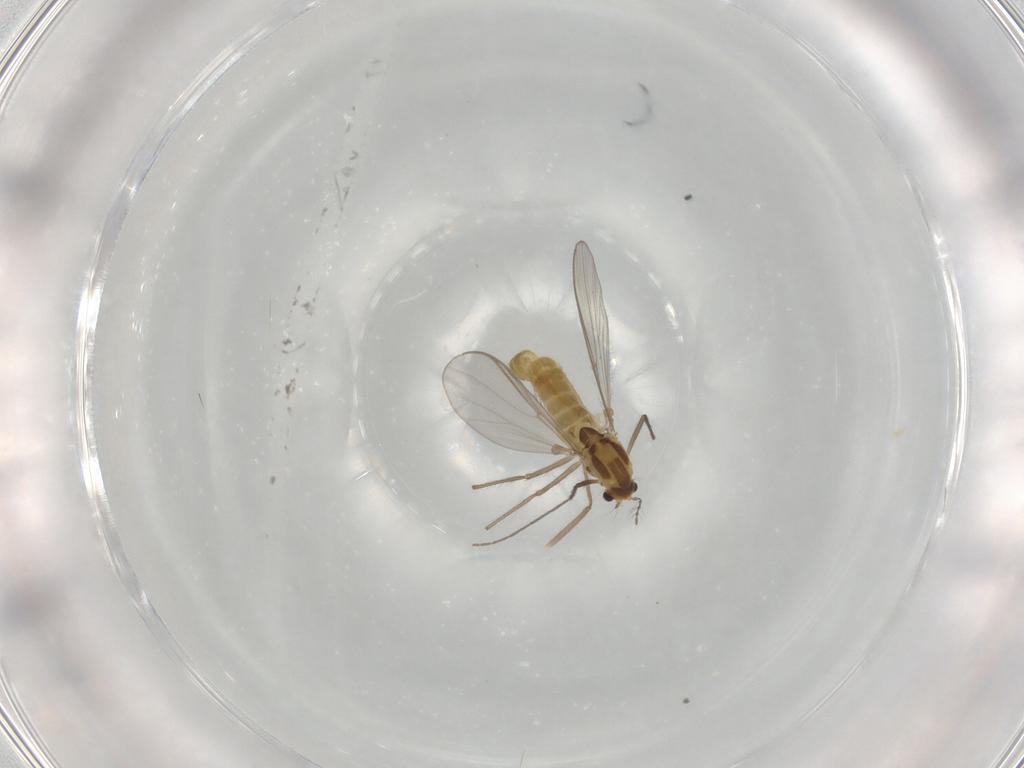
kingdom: Animalia
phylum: Arthropoda
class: Insecta
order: Diptera
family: Chironomidae
